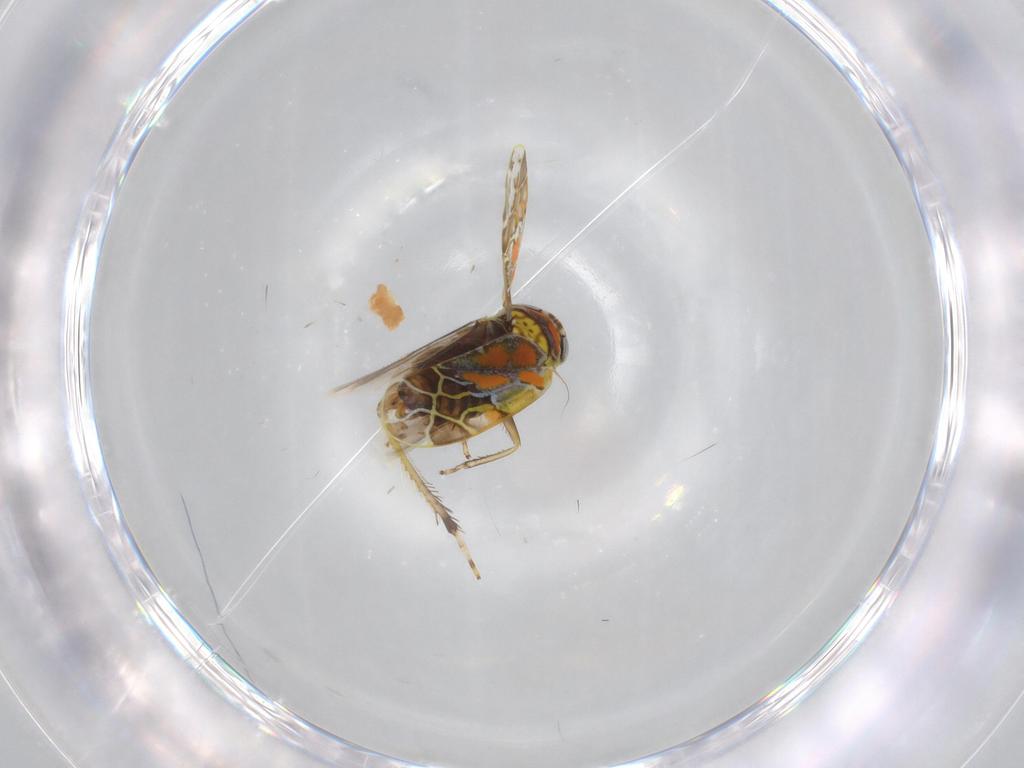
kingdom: Animalia
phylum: Arthropoda
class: Insecta
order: Hemiptera
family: Cicadellidae
